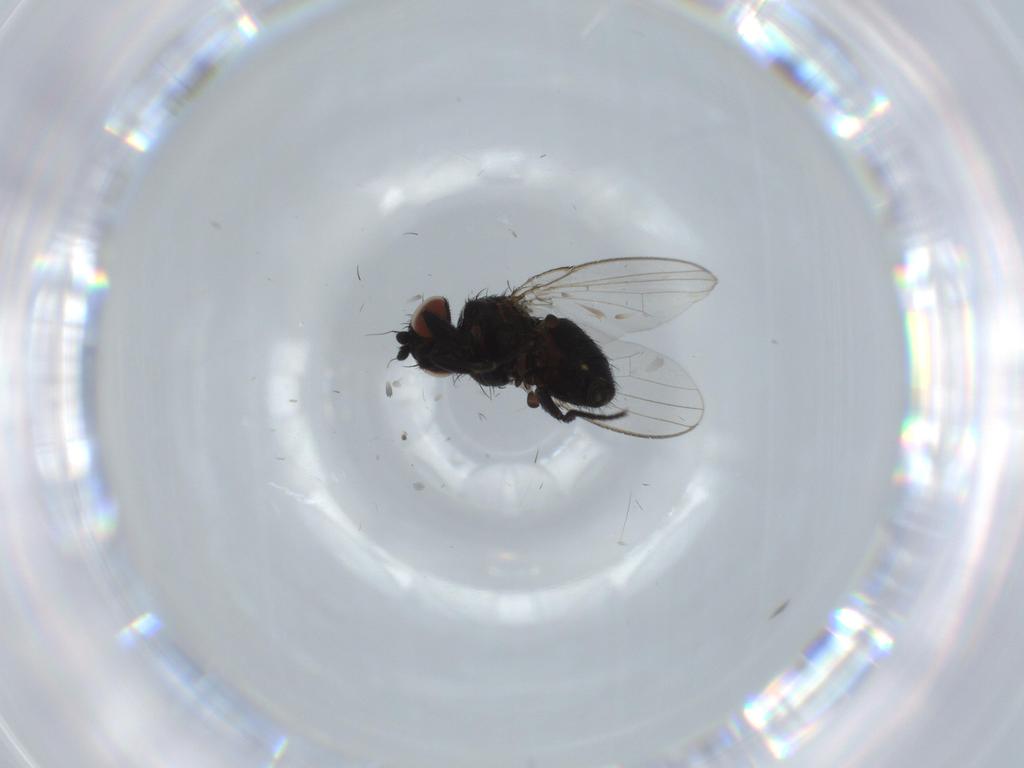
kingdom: Animalia
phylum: Arthropoda
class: Insecta
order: Diptera
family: Milichiidae
